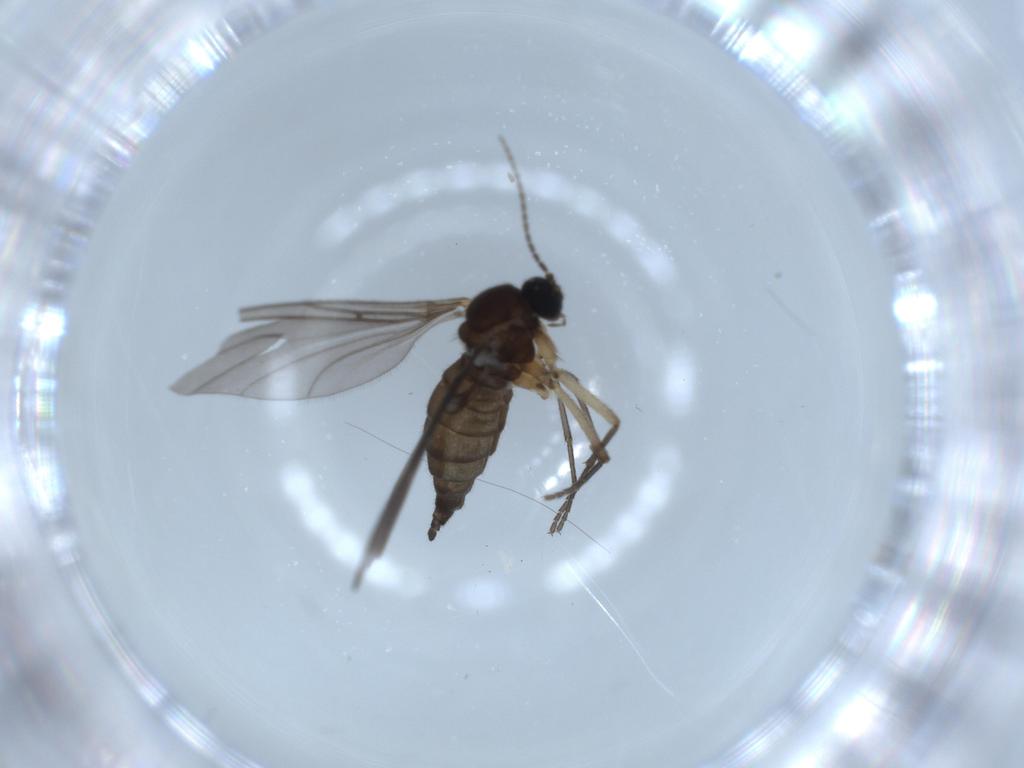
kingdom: Animalia
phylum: Arthropoda
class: Insecta
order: Diptera
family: Sciaridae
